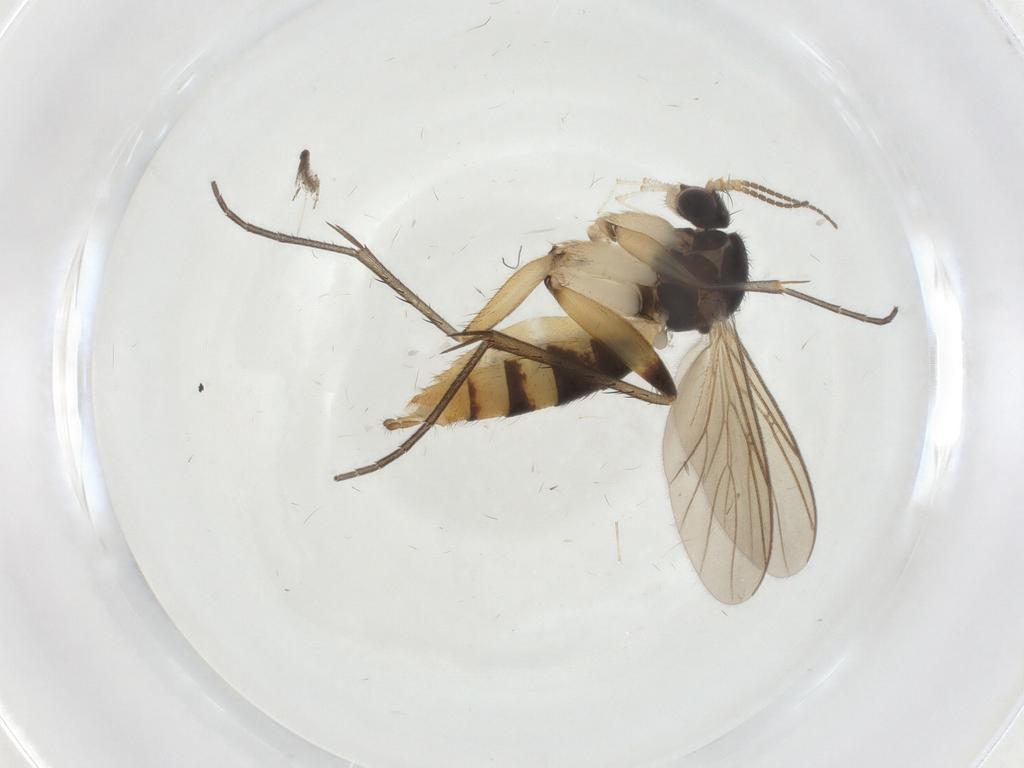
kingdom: Animalia
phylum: Arthropoda
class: Insecta
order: Diptera
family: Mycetophilidae
